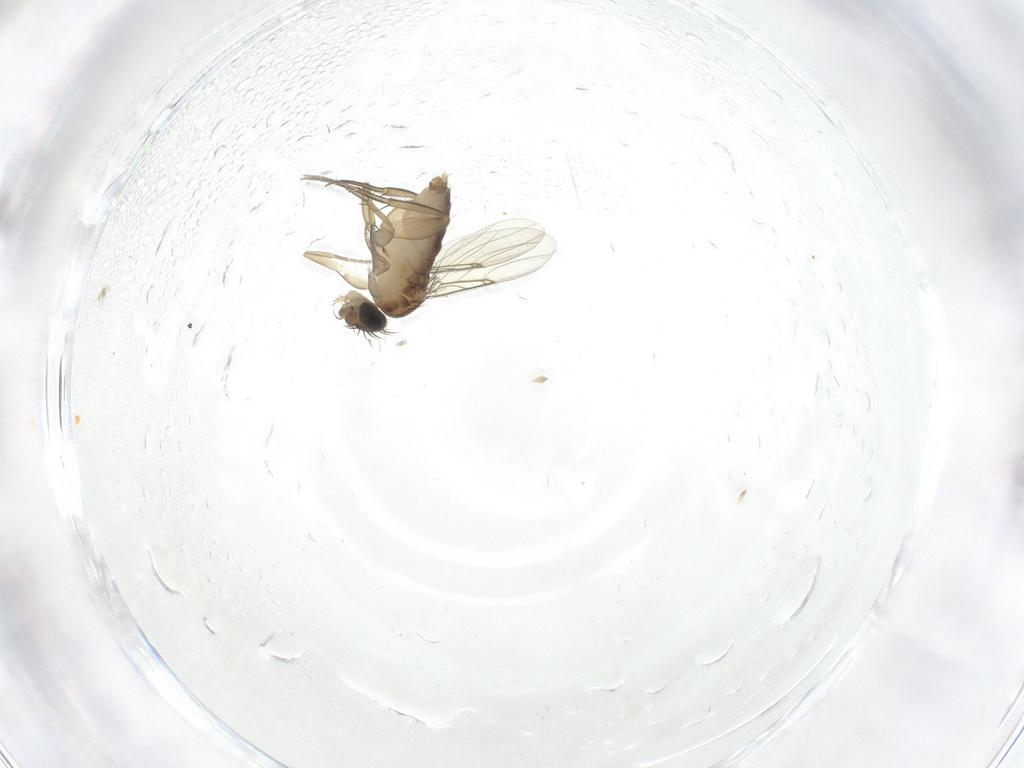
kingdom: Animalia
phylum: Arthropoda
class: Insecta
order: Diptera
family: Phoridae
